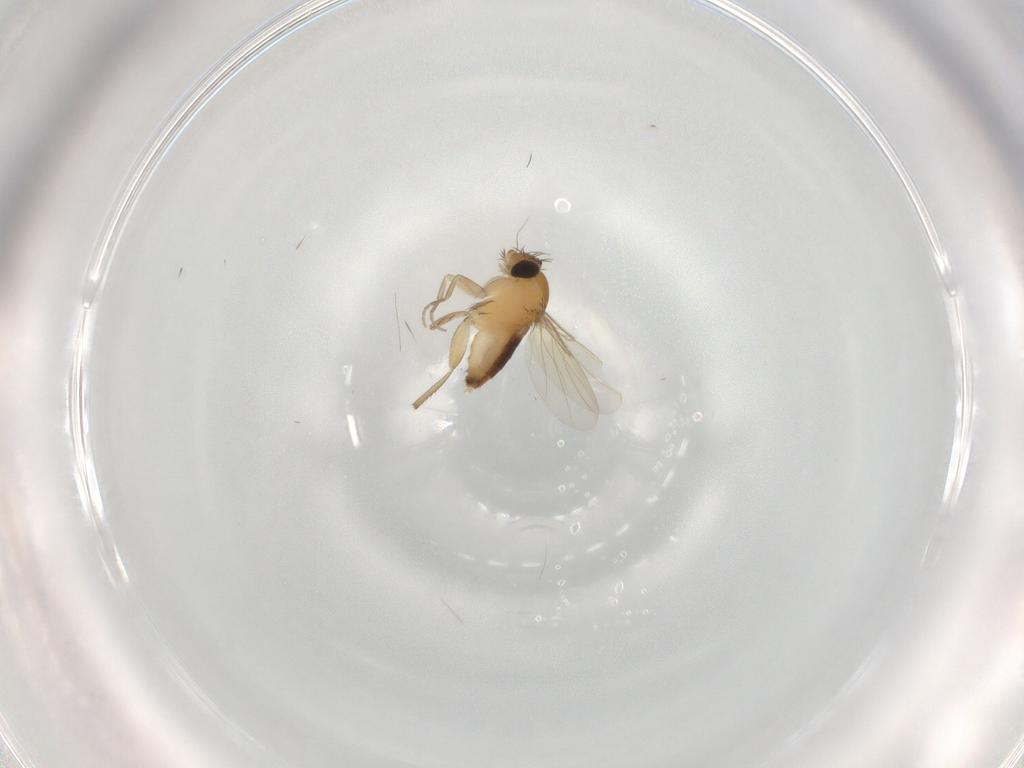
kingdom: Animalia
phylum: Arthropoda
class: Insecta
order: Diptera
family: Phoridae
